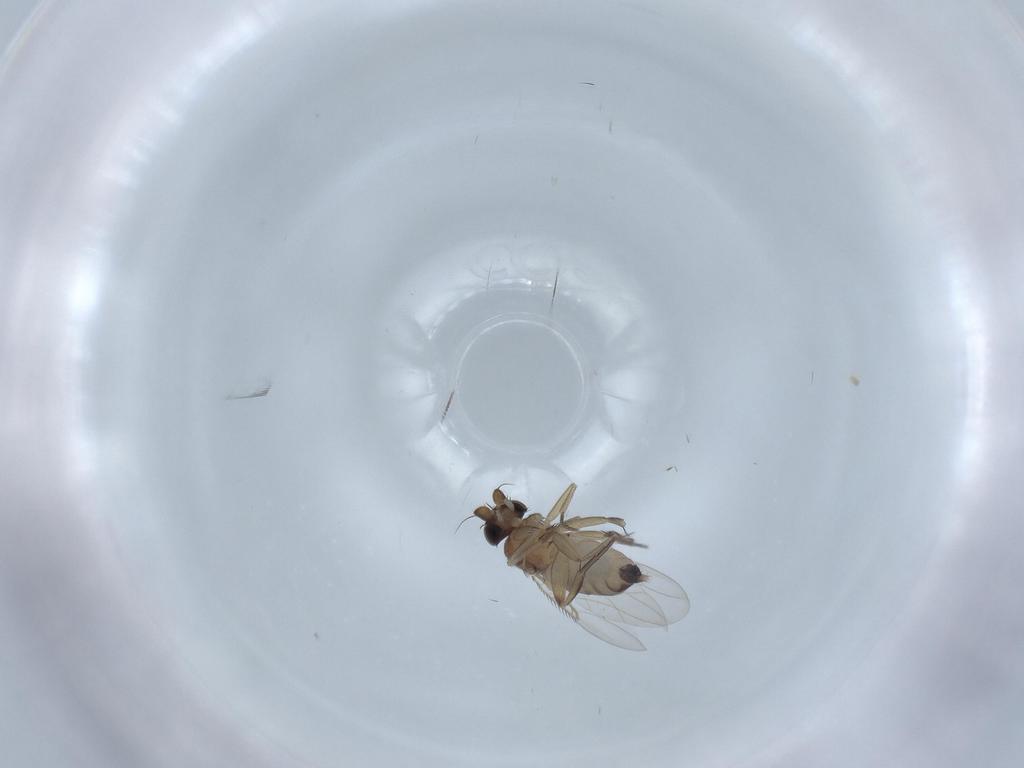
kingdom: Animalia
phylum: Arthropoda
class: Insecta
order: Diptera
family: Phoridae
